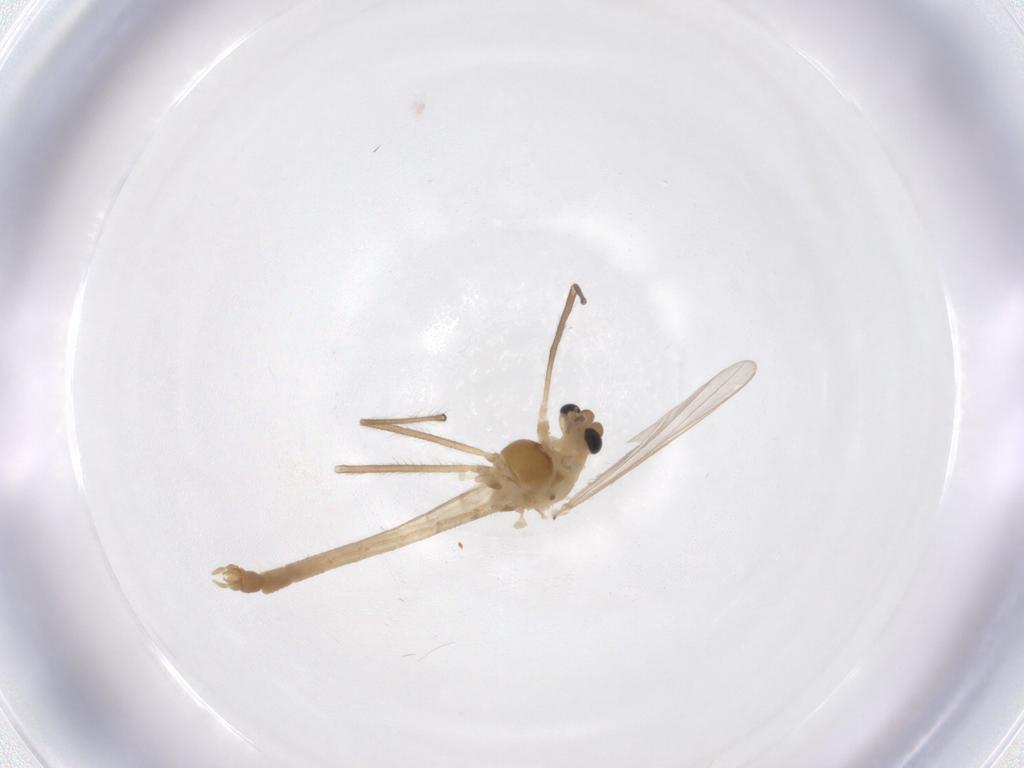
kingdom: Animalia
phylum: Arthropoda
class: Insecta
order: Diptera
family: Chironomidae
